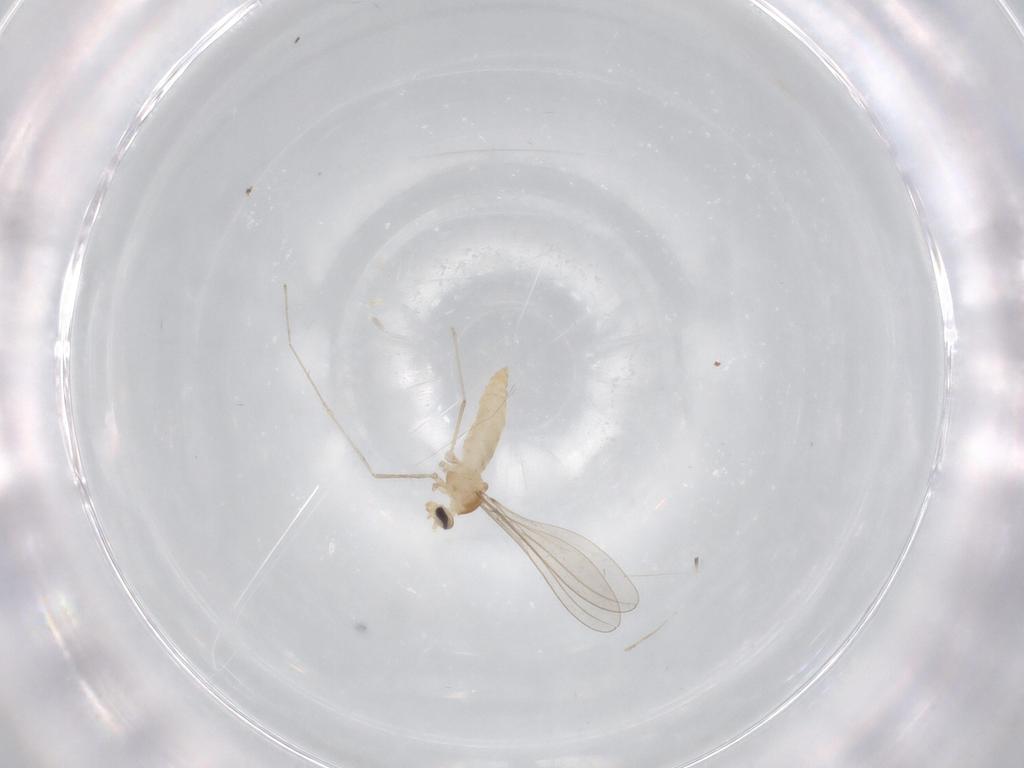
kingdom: Animalia
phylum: Arthropoda
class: Insecta
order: Diptera
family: Cecidomyiidae
